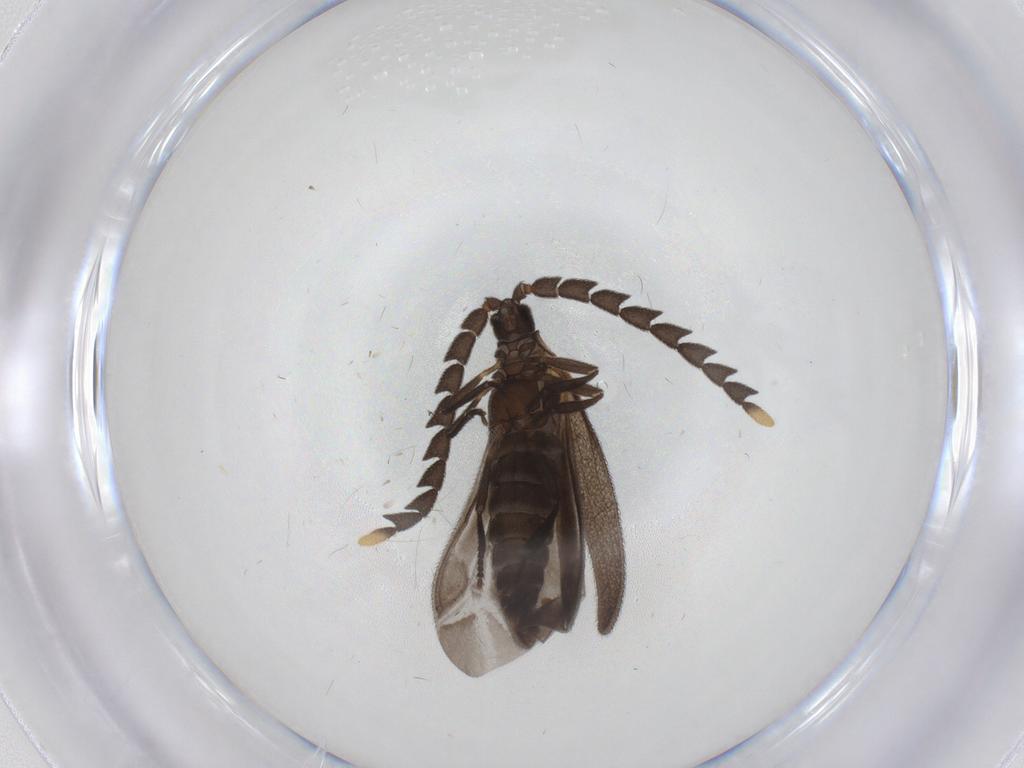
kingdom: Animalia
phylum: Arthropoda
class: Insecta
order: Coleoptera
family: Lycidae
